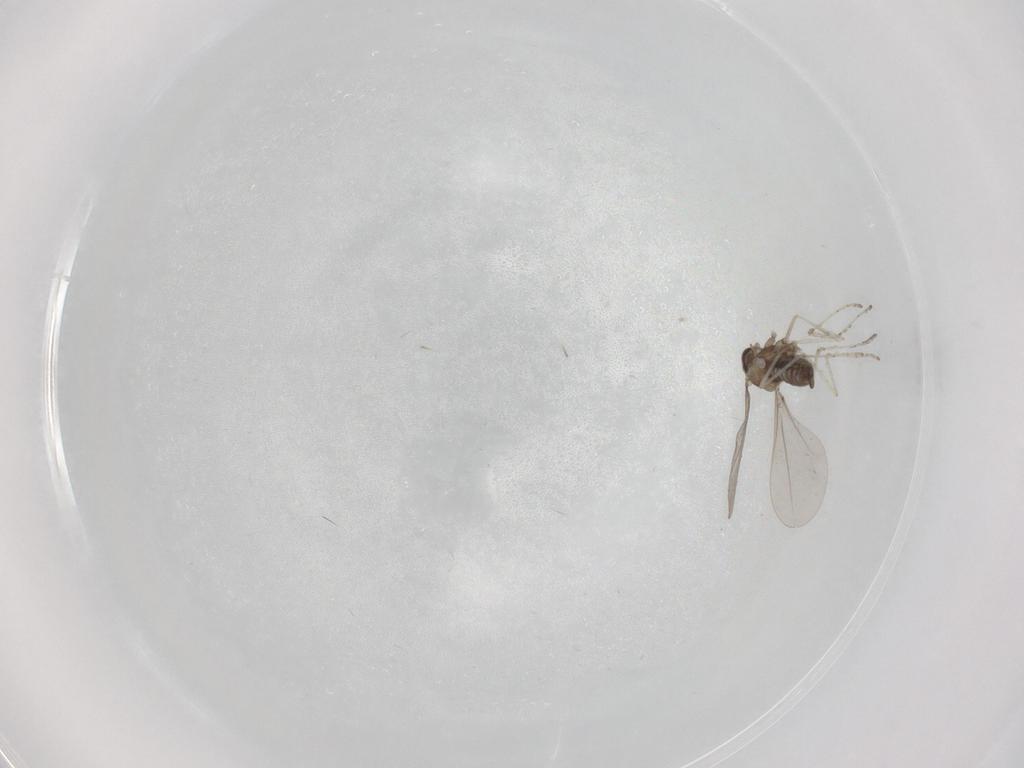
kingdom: Animalia
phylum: Arthropoda
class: Insecta
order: Diptera
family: Cecidomyiidae
